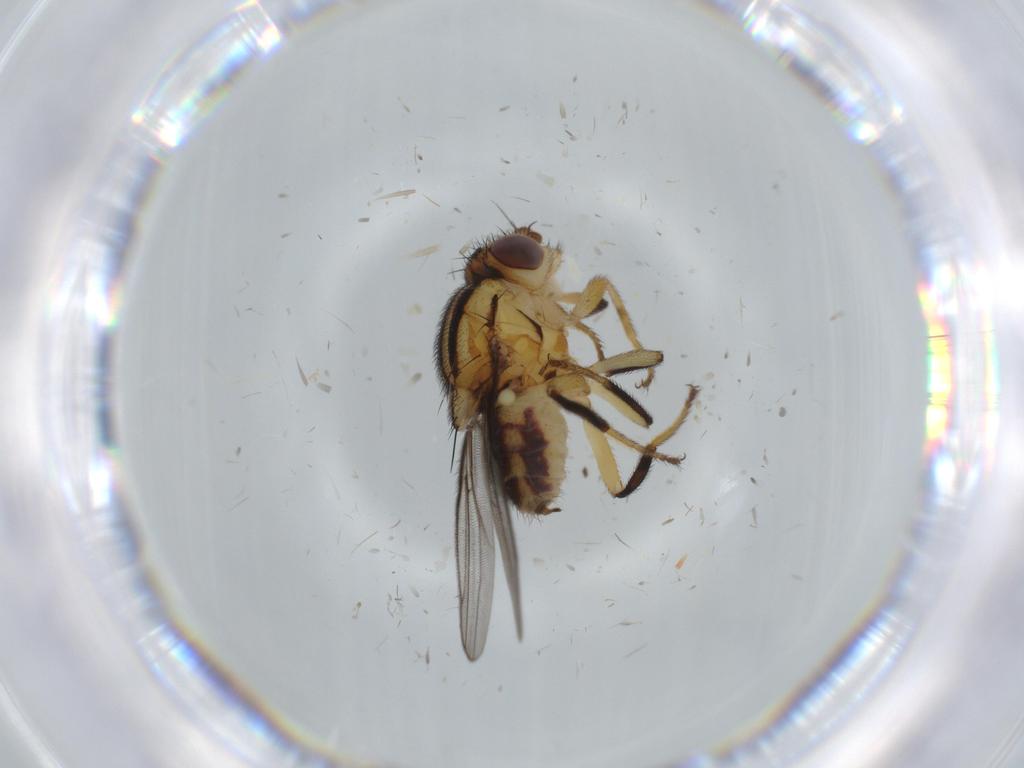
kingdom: Animalia
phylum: Arthropoda
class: Insecta
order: Diptera
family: Chloropidae
